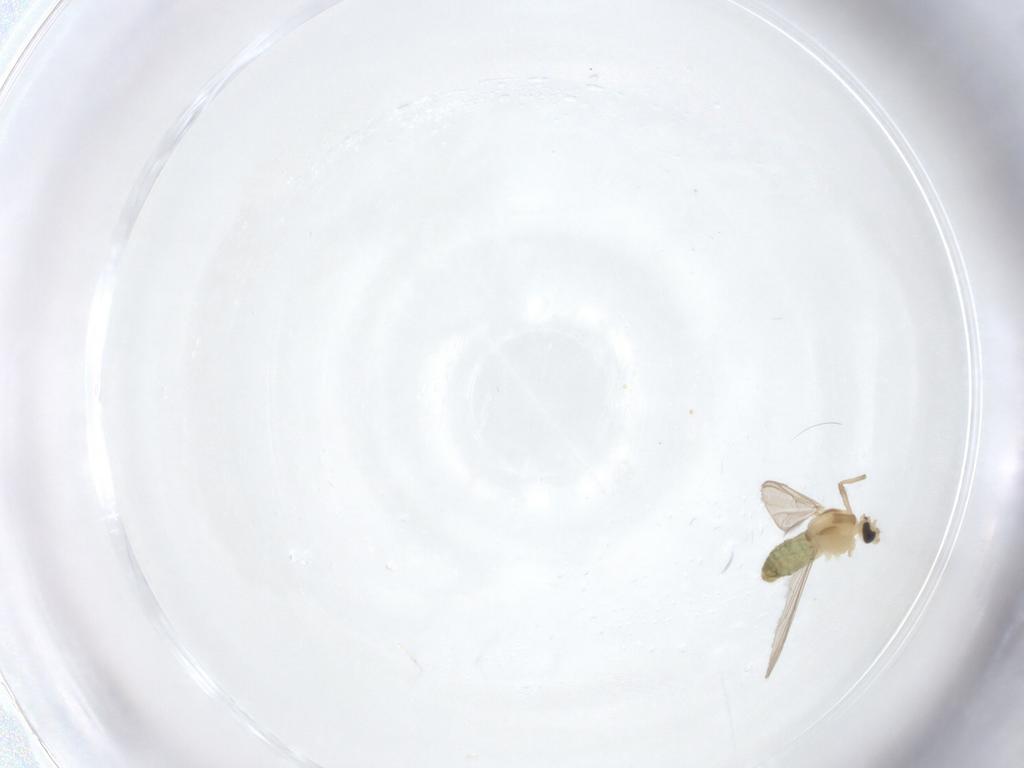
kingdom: Animalia
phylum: Arthropoda
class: Insecta
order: Diptera
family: Chironomidae
